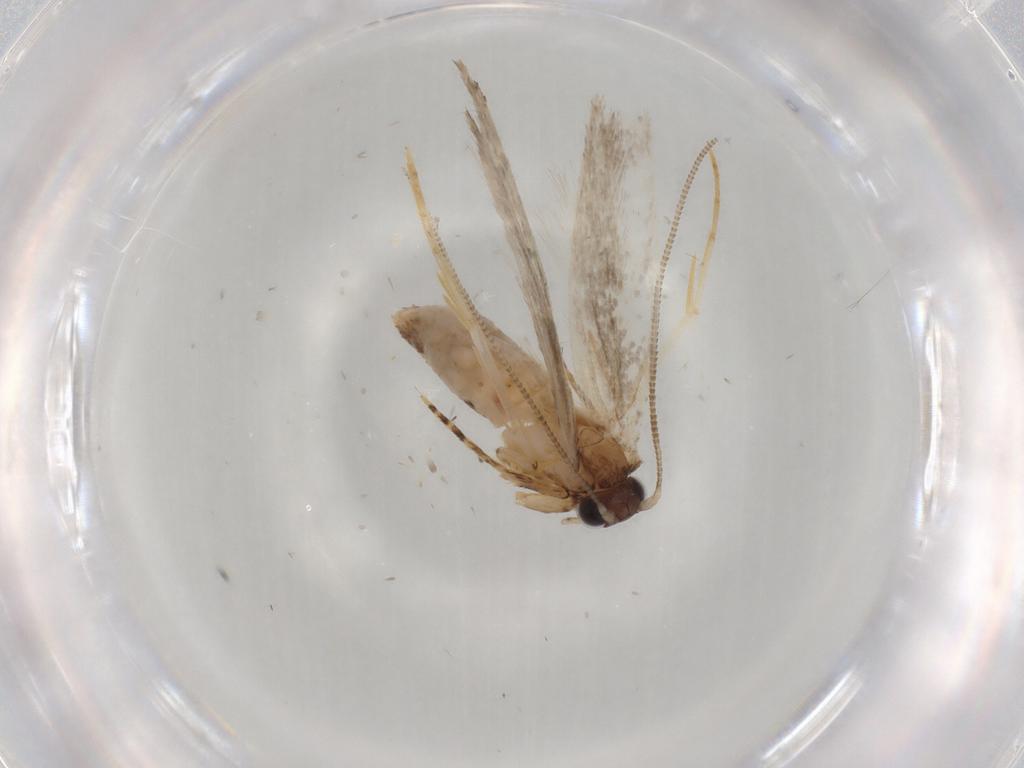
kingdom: Animalia
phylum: Arthropoda
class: Insecta
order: Lepidoptera
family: Tineidae
